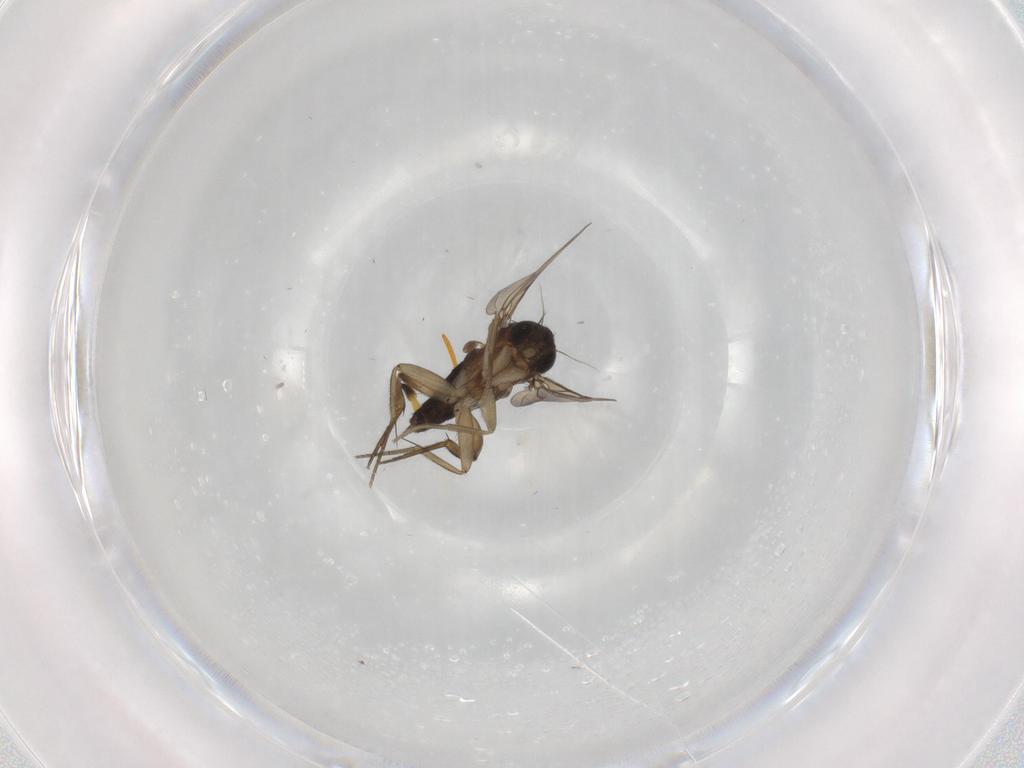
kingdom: Animalia
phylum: Arthropoda
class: Insecta
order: Diptera
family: Phoridae
